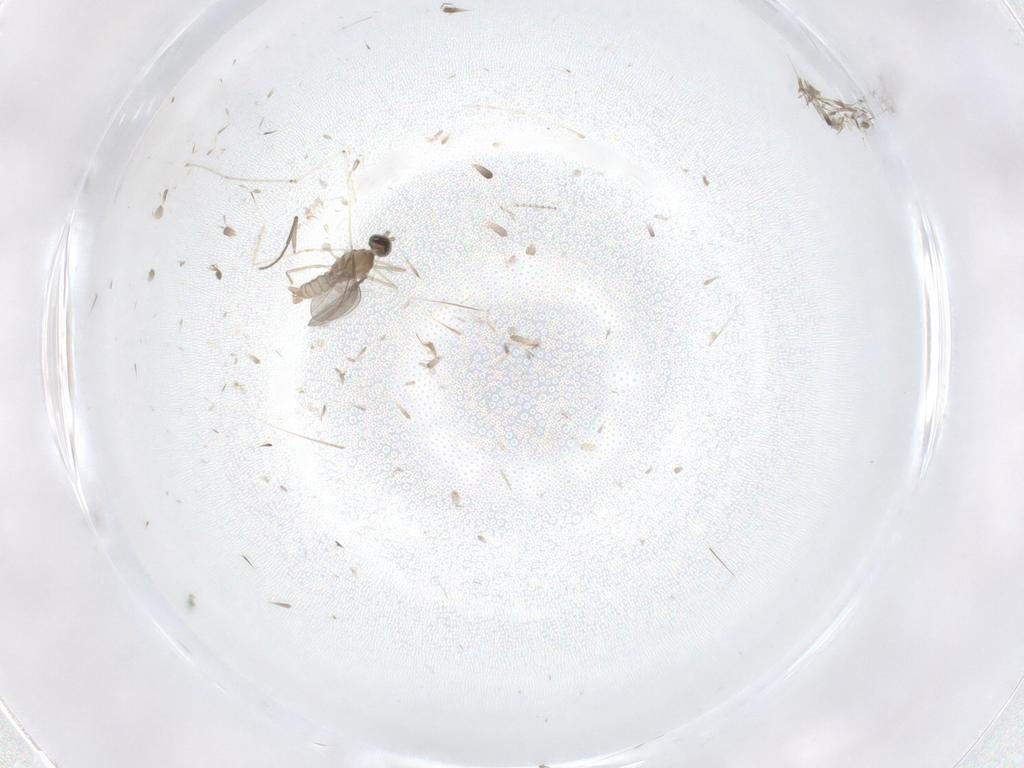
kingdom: Animalia
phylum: Arthropoda
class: Insecta
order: Diptera
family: Cecidomyiidae
